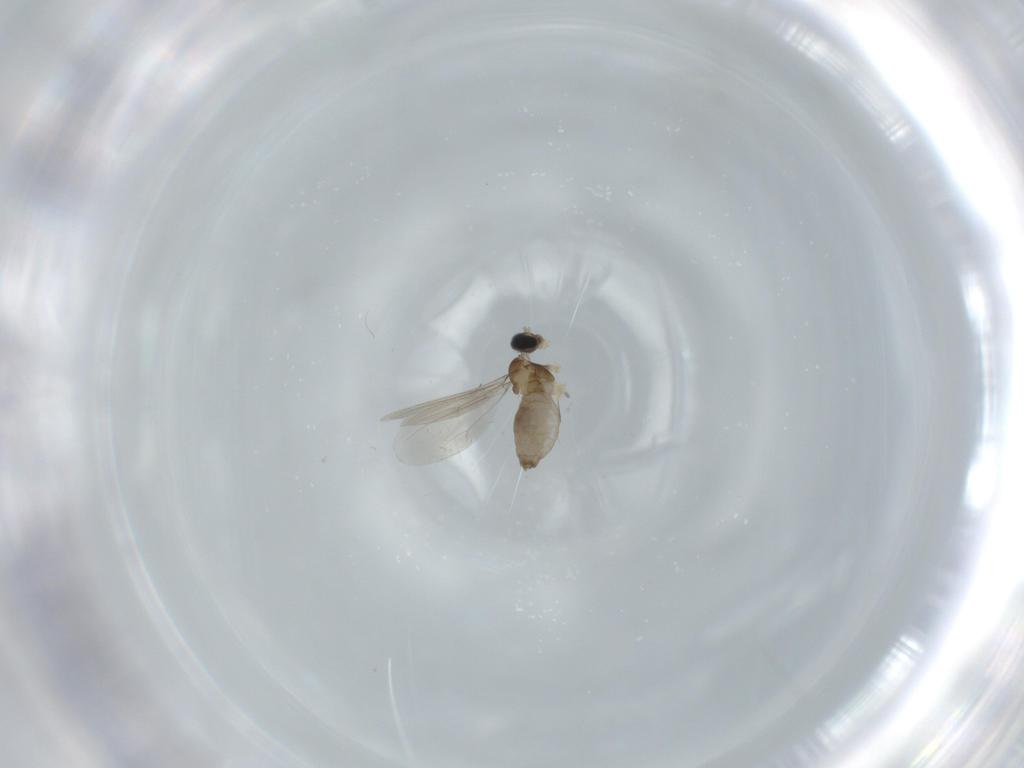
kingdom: Animalia
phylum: Arthropoda
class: Insecta
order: Diptera
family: Cecidomyiidae
